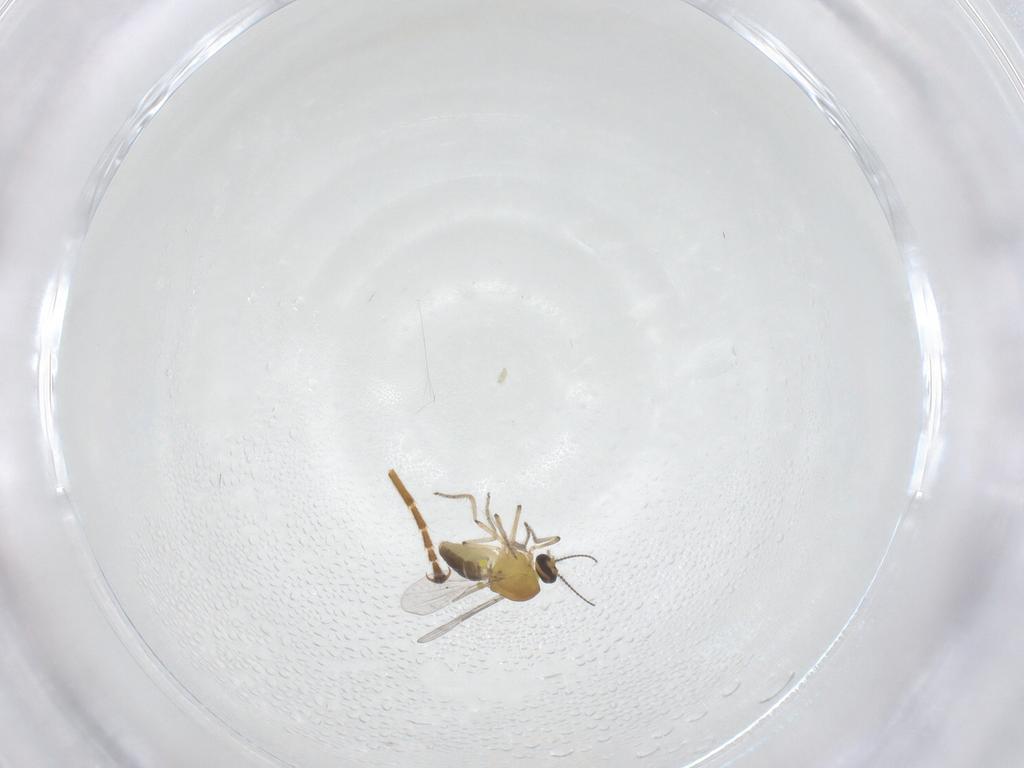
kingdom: Animalia
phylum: Arthropoda
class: Insecta
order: Diptera
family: Ceratopogonidae
